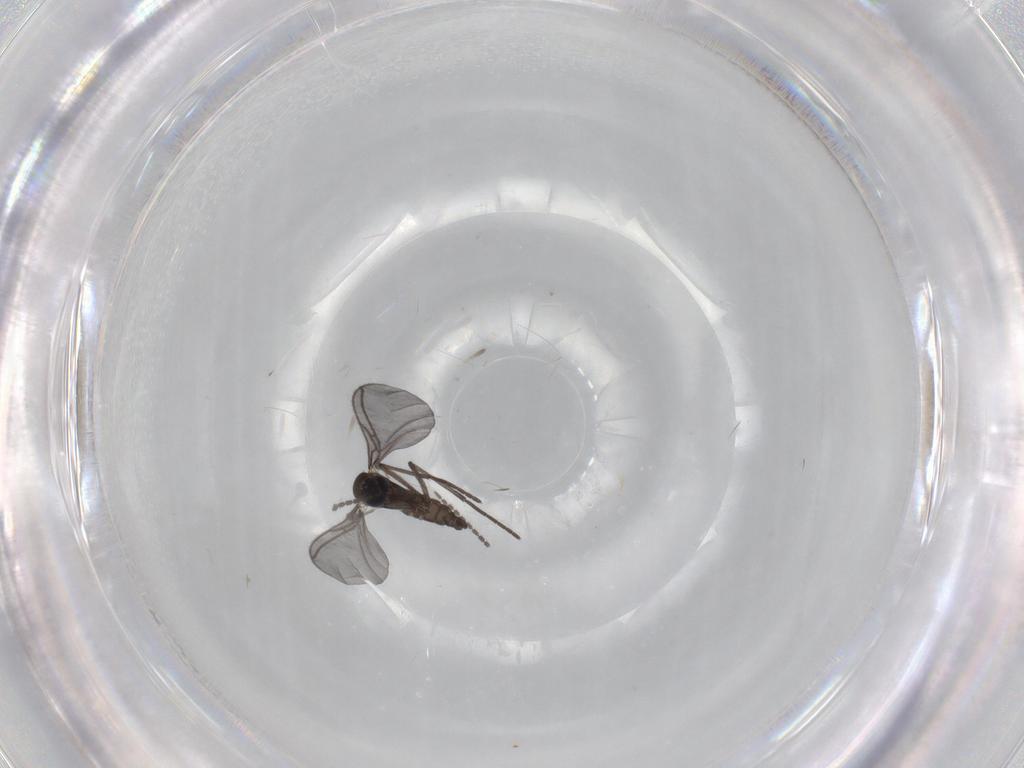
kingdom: Animalia
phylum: Arthropoda
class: Insecta
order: Diptera
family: Sciaridae
